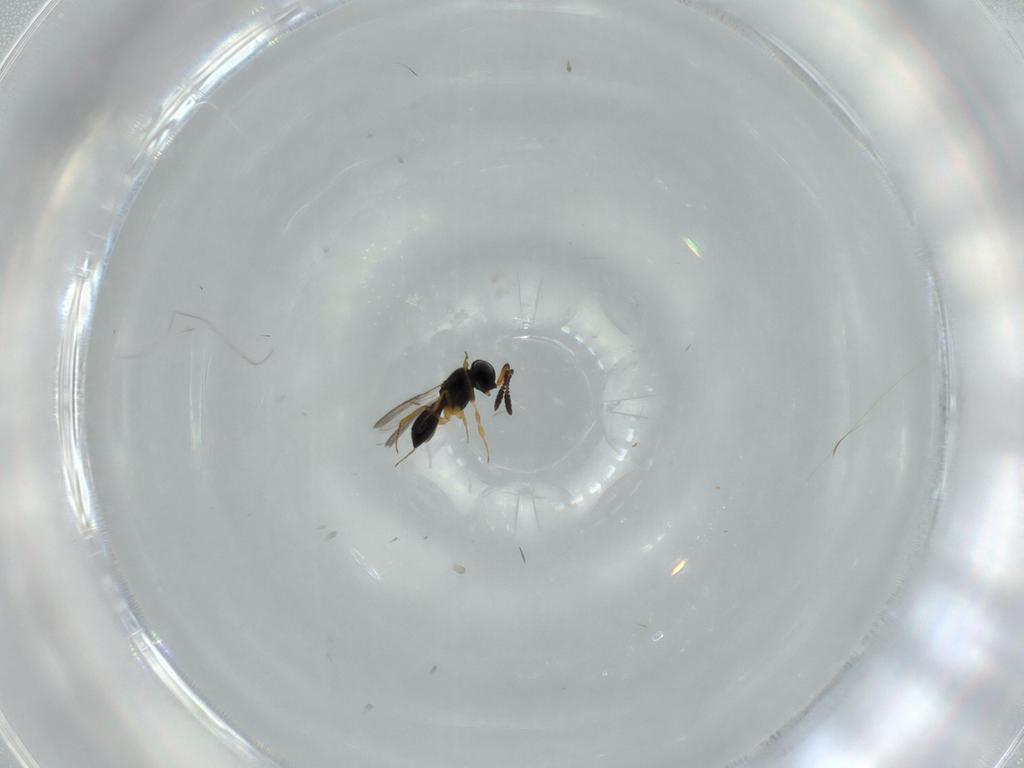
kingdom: Animalia
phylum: Arthropoda
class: Insecta
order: Hymenoptera
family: Scelionidae
